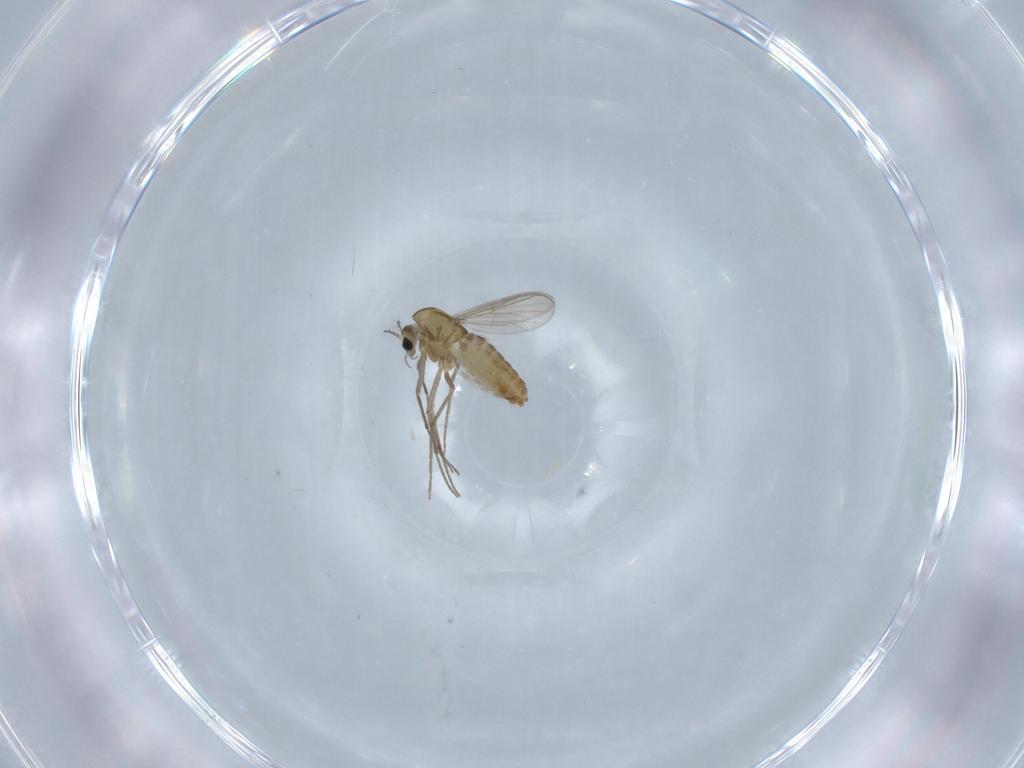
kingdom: Animalia
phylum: Arthropoda
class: Insecta
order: Diptera
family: Chironomidae
